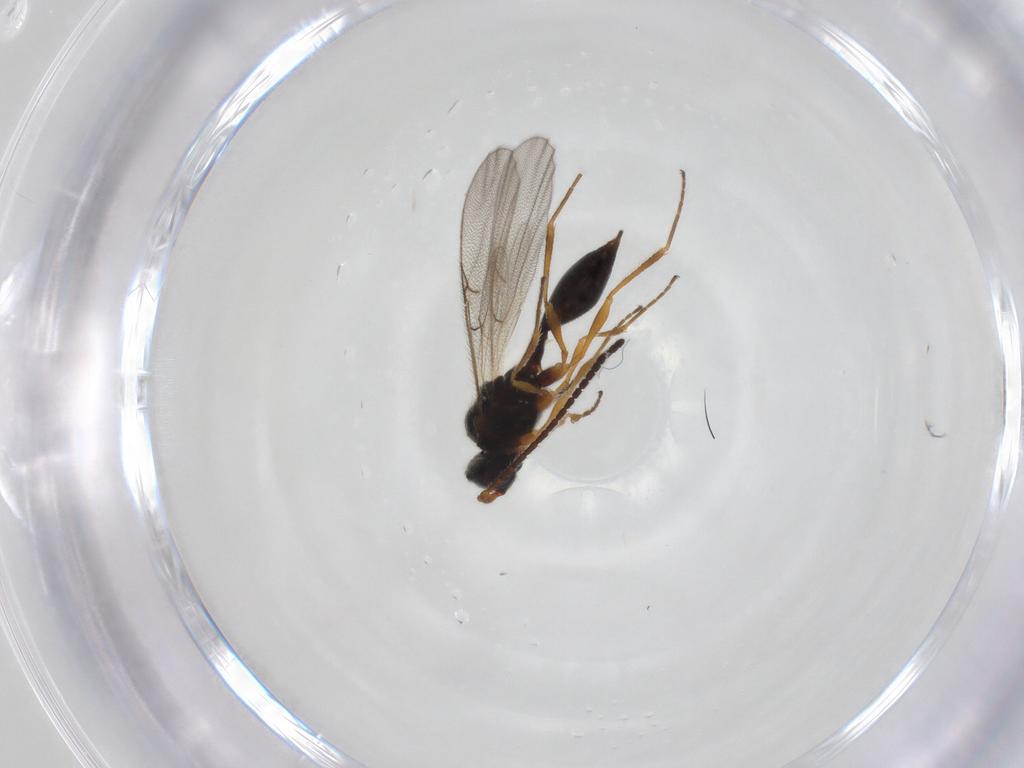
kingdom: Animalia
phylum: Arthropoda
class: Insecta
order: Hymenoptera
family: Diapriidae
